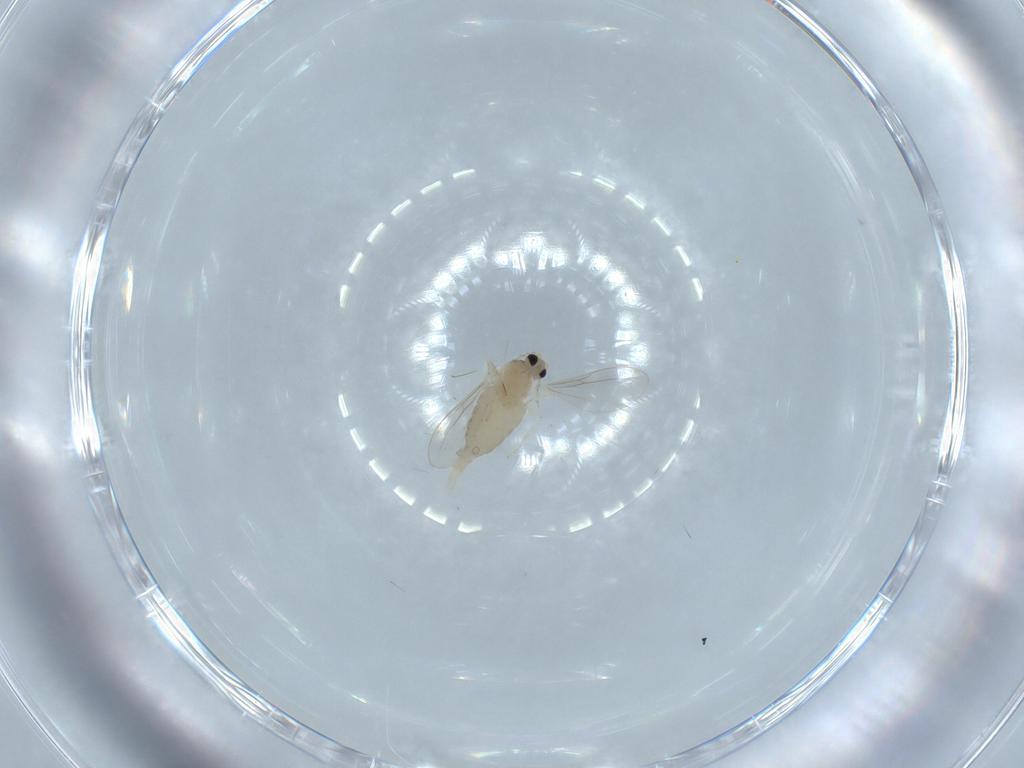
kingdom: Animalia
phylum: Arthropoda
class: Insecta
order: Diptera
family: Cecidomyiidae
